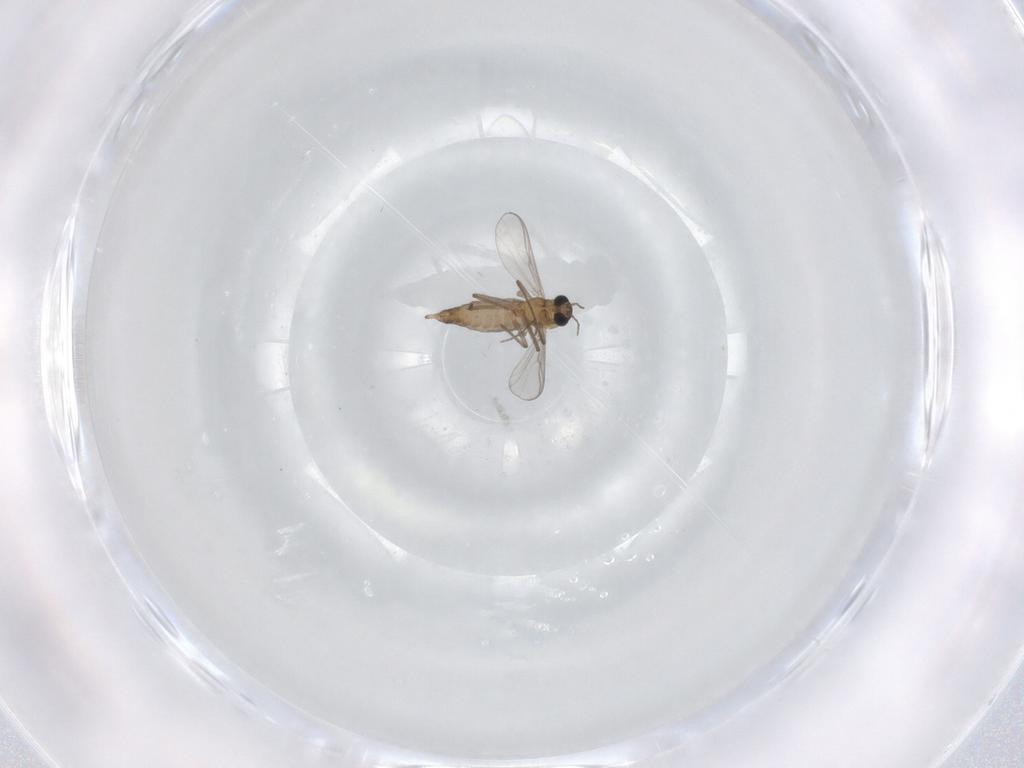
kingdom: Animalia
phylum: Arthropoda
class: Insecta
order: Diptera
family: Chironomidae
